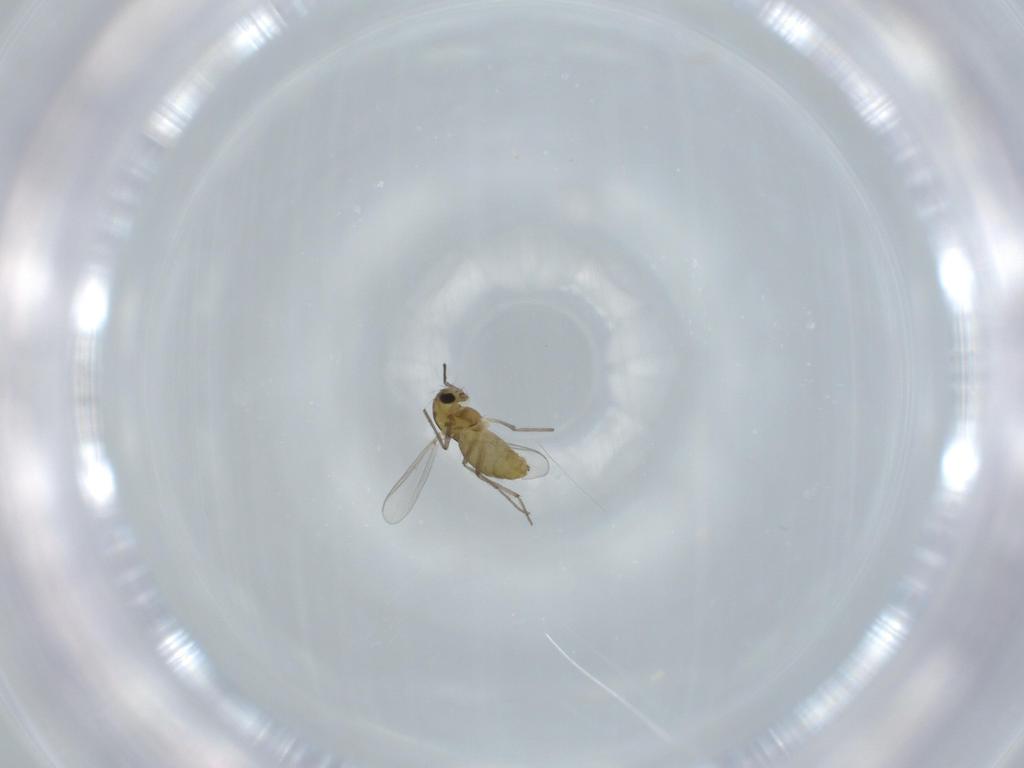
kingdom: Animalia
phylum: Arthropoda
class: Insecta
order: Diptera
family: Chironomidae
